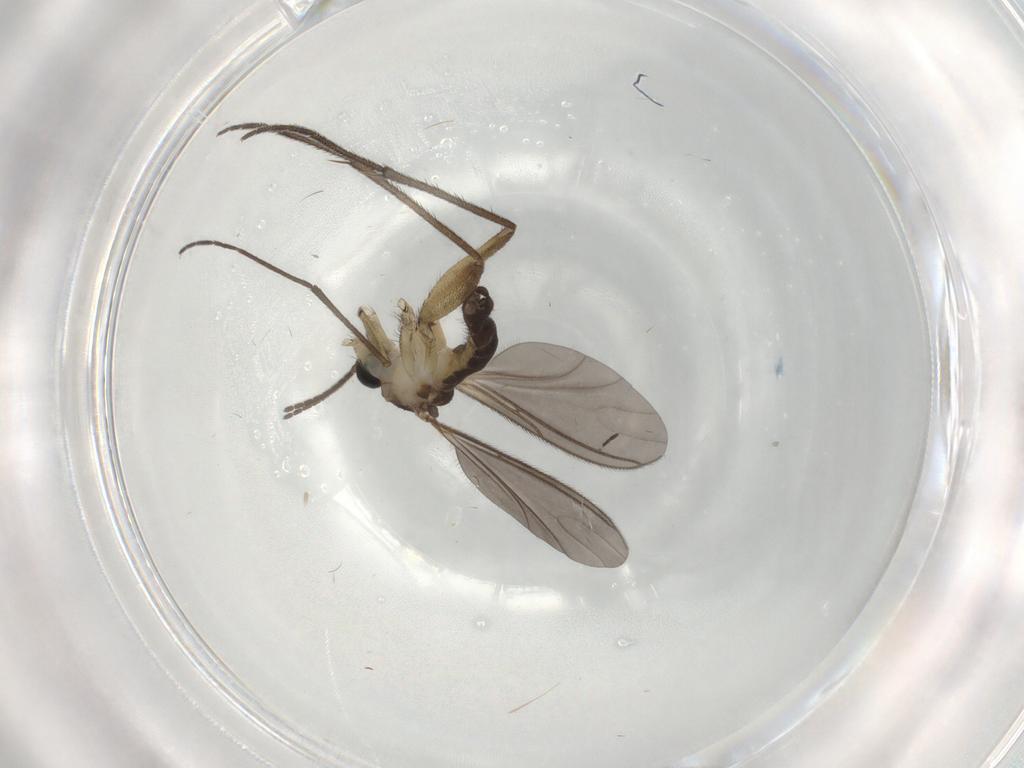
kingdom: Animalia
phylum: Arthropoda
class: Insecta
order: Diptera
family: Sciaridae
